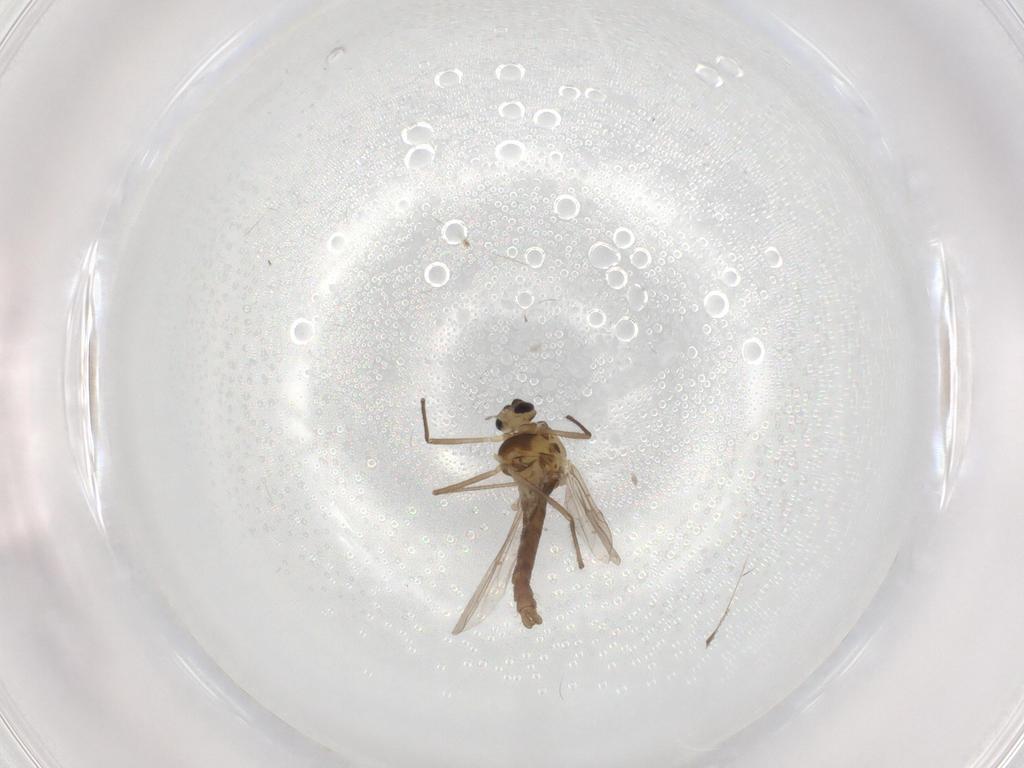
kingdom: Animalia
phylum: Arthropoda
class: Insecta
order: Diptera
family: Chironomidae
